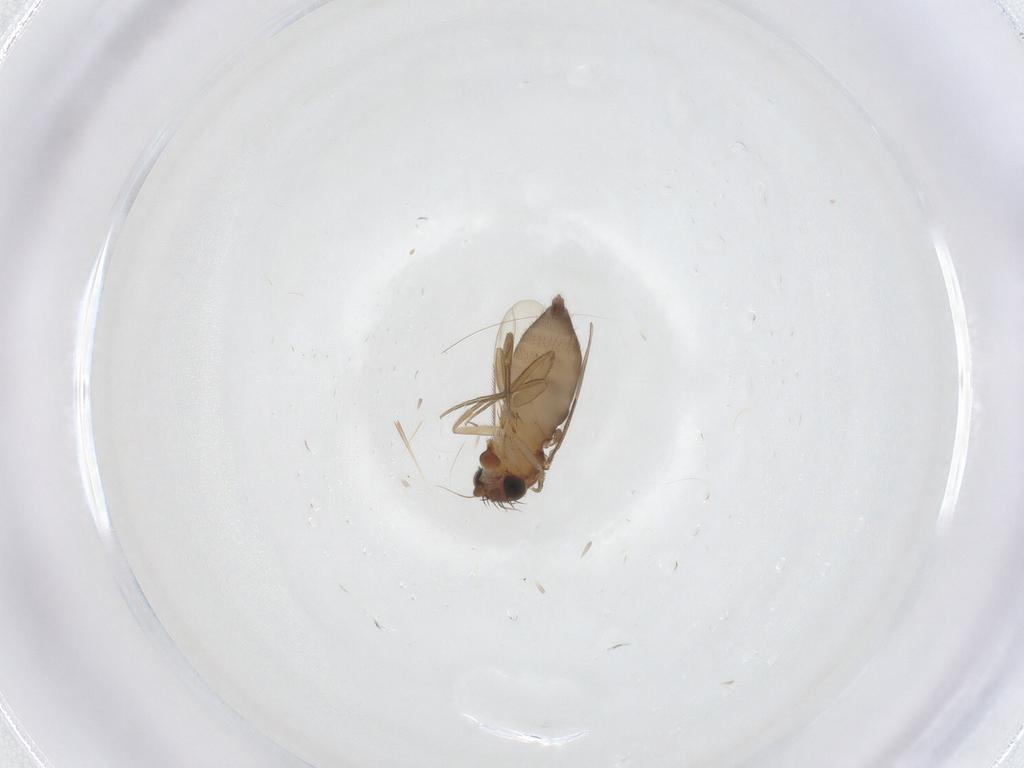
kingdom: Animalia
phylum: Arthropoda
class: Insecta
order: Diptera
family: Phoridae
